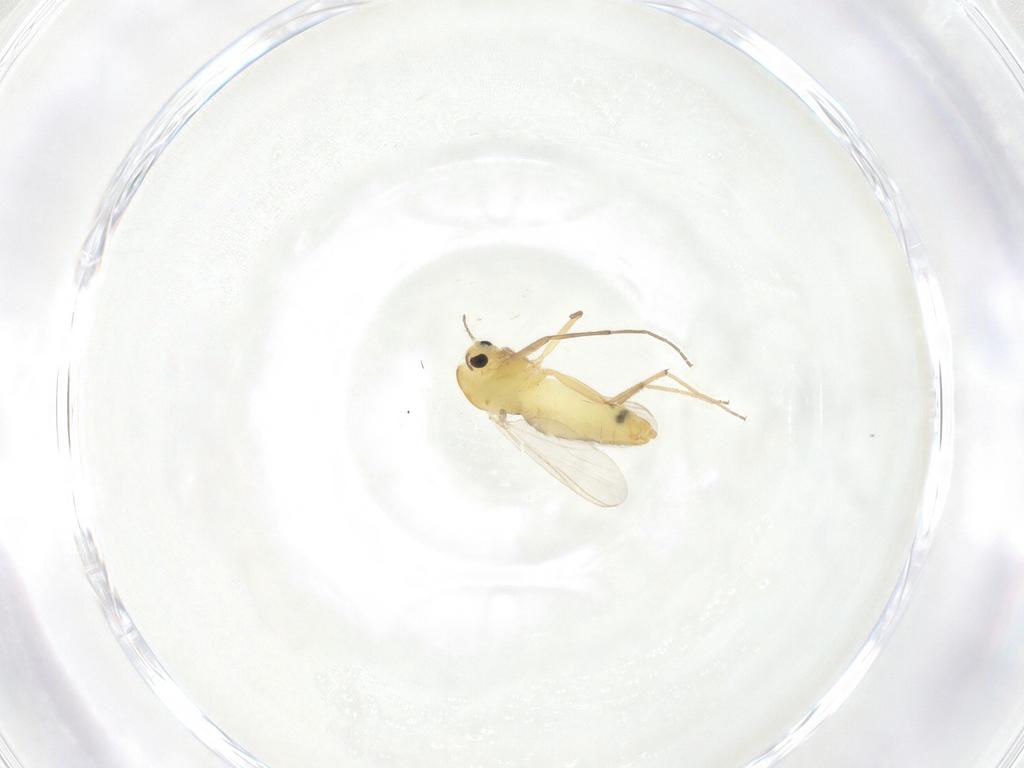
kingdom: Animalia
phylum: Arthropoda
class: Insecta
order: Diptera
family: Chironomidae
